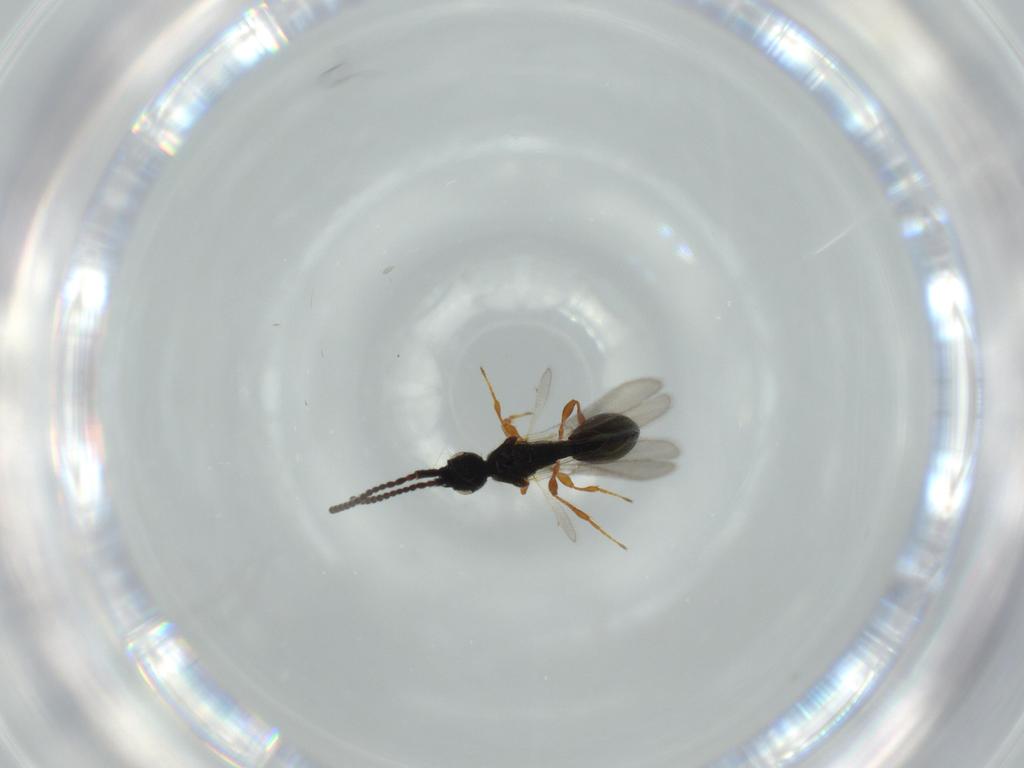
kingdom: Animalia
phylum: Arthropoda
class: Insecta
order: Hymenoptera
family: Diapriidae
